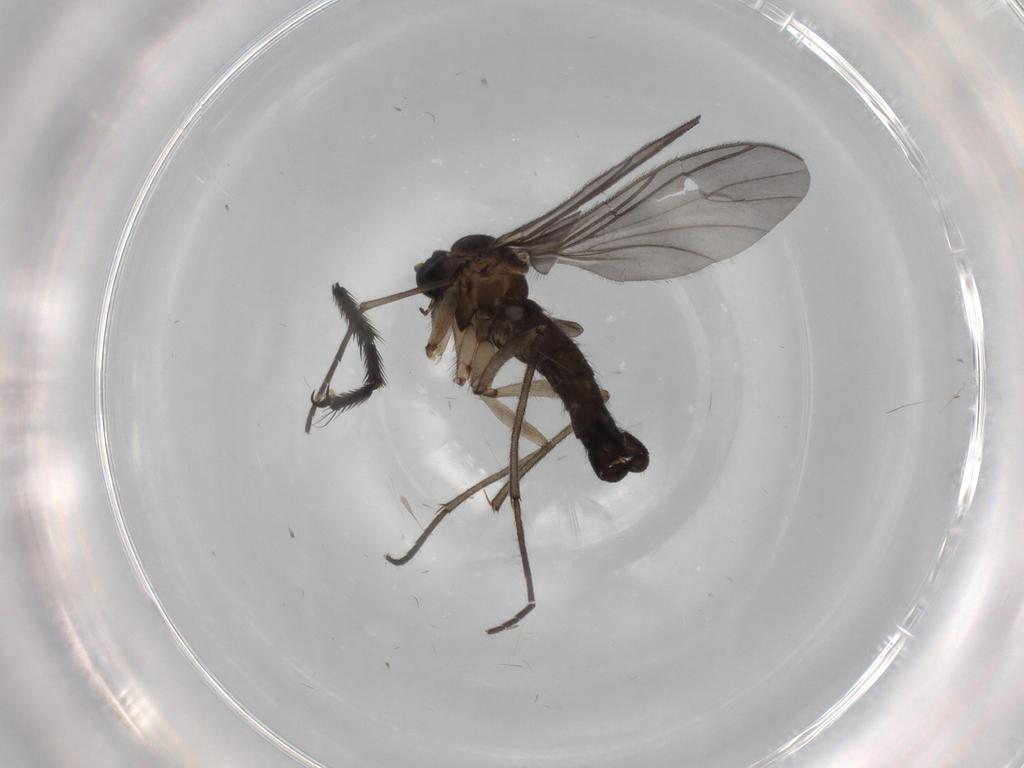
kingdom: Animalia
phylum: Arthropoda
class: Insecta
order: Diptera
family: Sciaridae
